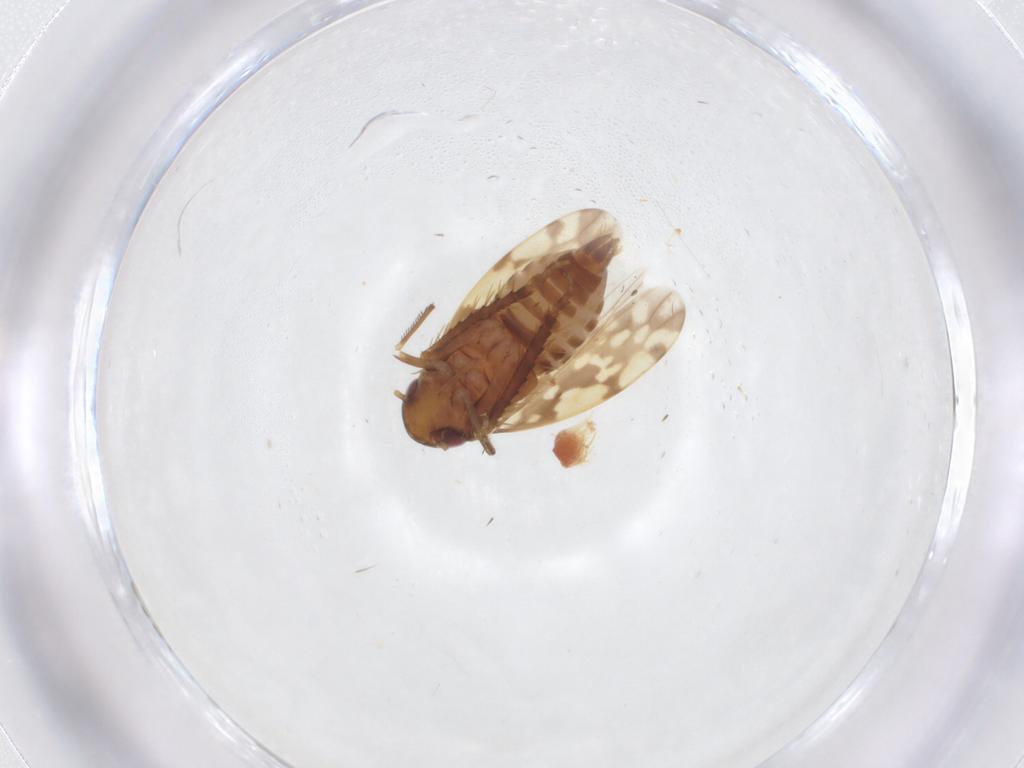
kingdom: Animalia
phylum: Arthropoda
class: Insecta
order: Hemiptera
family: Cicadellidae
